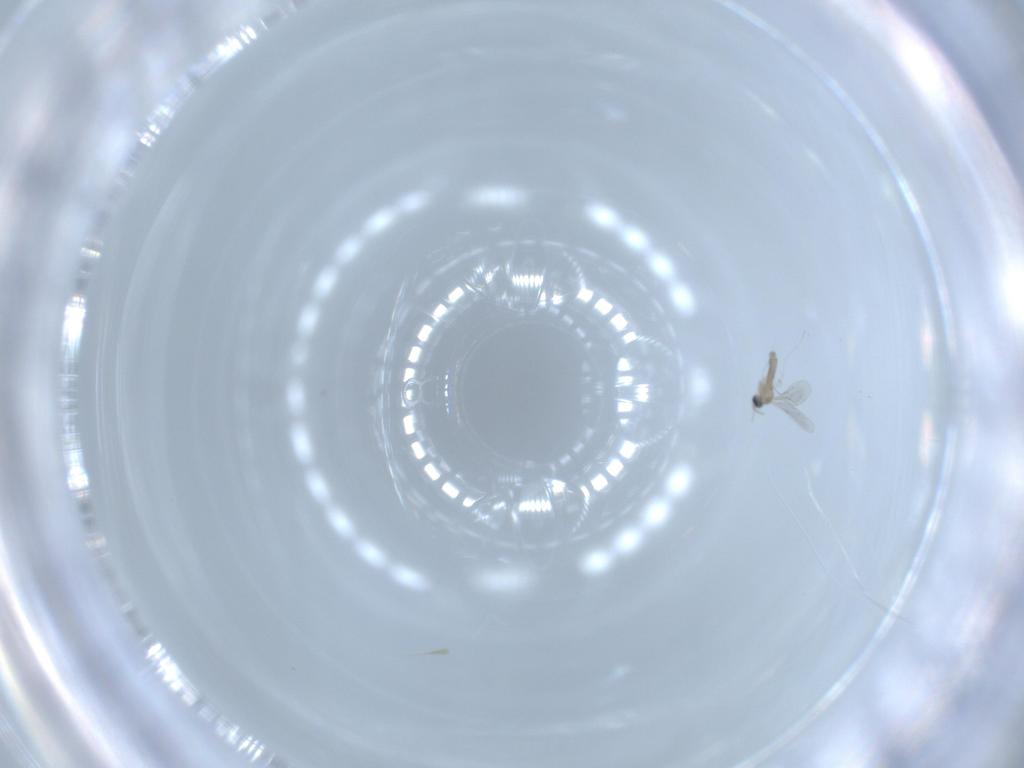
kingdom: Animalia
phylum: Arthropoda
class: Insecta
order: Diptera
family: Cecidomyiidae
